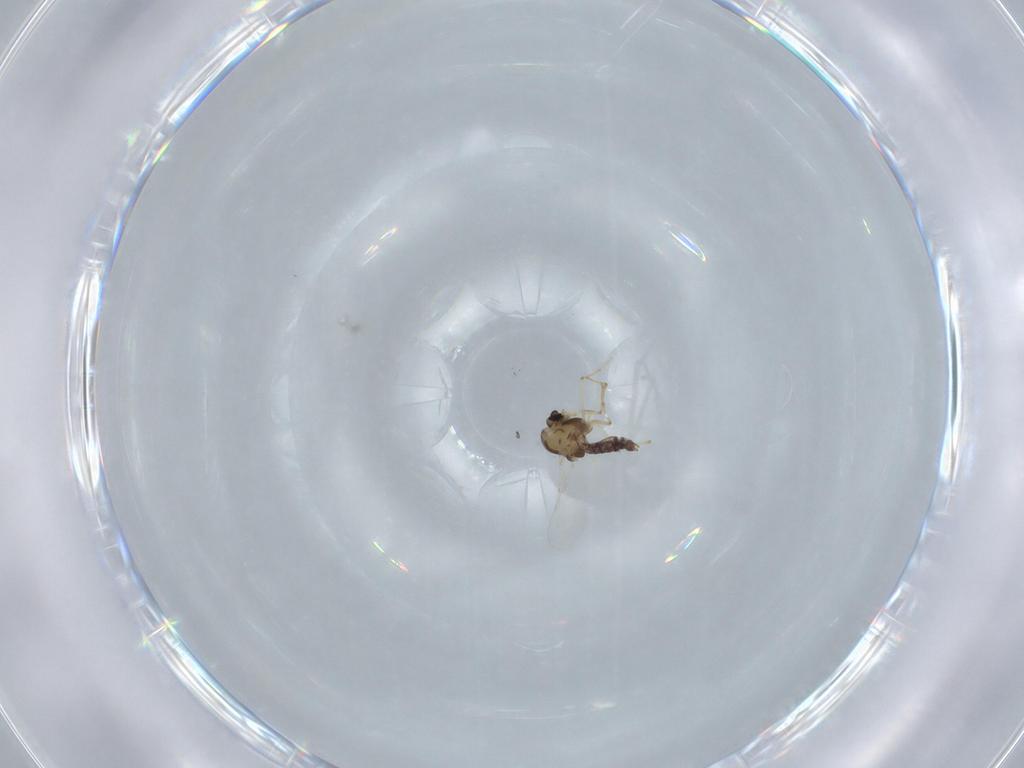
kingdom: Animalia
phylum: Arthropoda
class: Insecta
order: Diptera
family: Chironomidae
